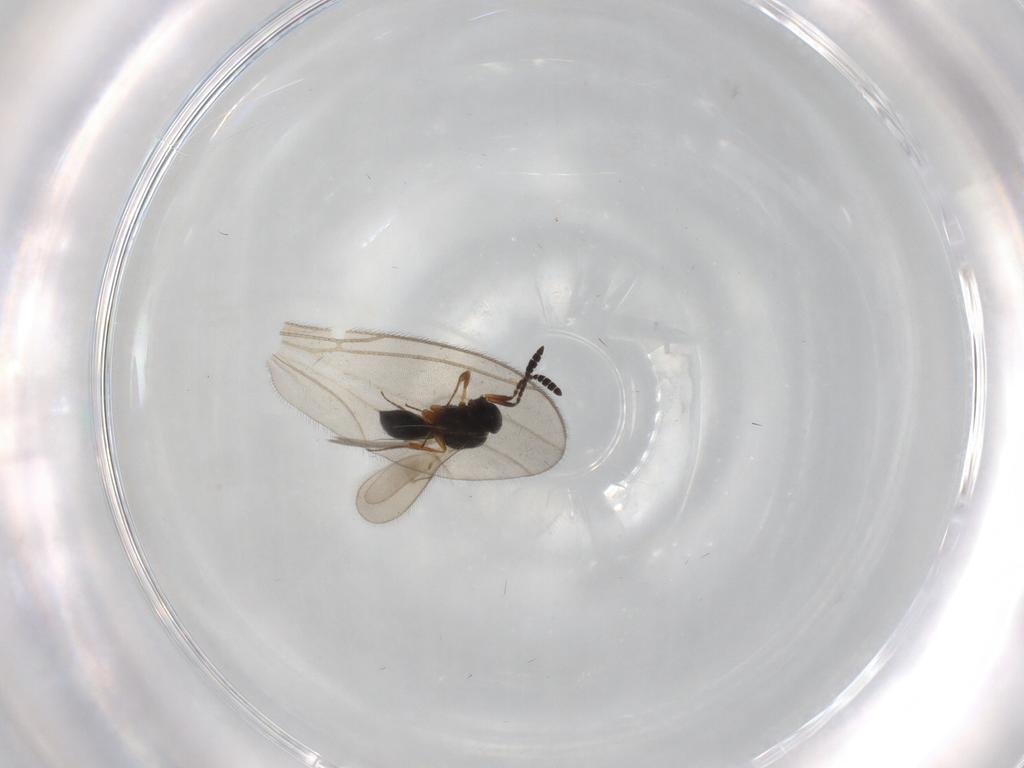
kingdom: Animalia
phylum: Arthropoda
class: Insecta
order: Hymenoptera
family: Scelionidae
